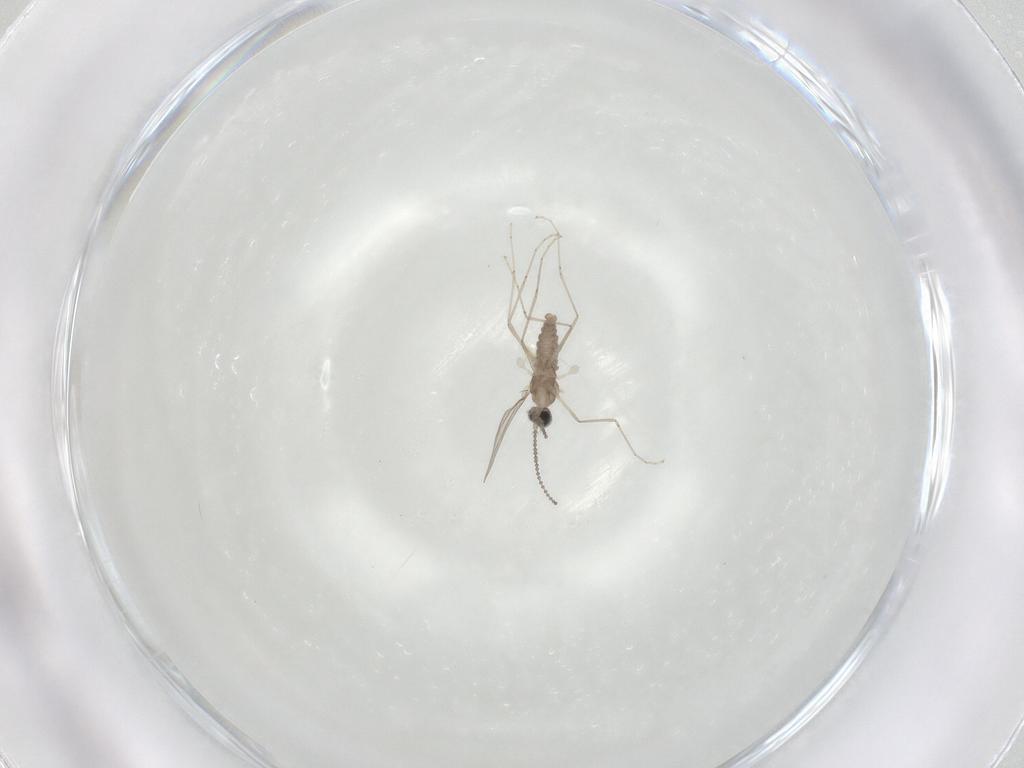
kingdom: Animalia
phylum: Arthropoda
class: Insecta
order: Diptera
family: Cecidomyiidae
